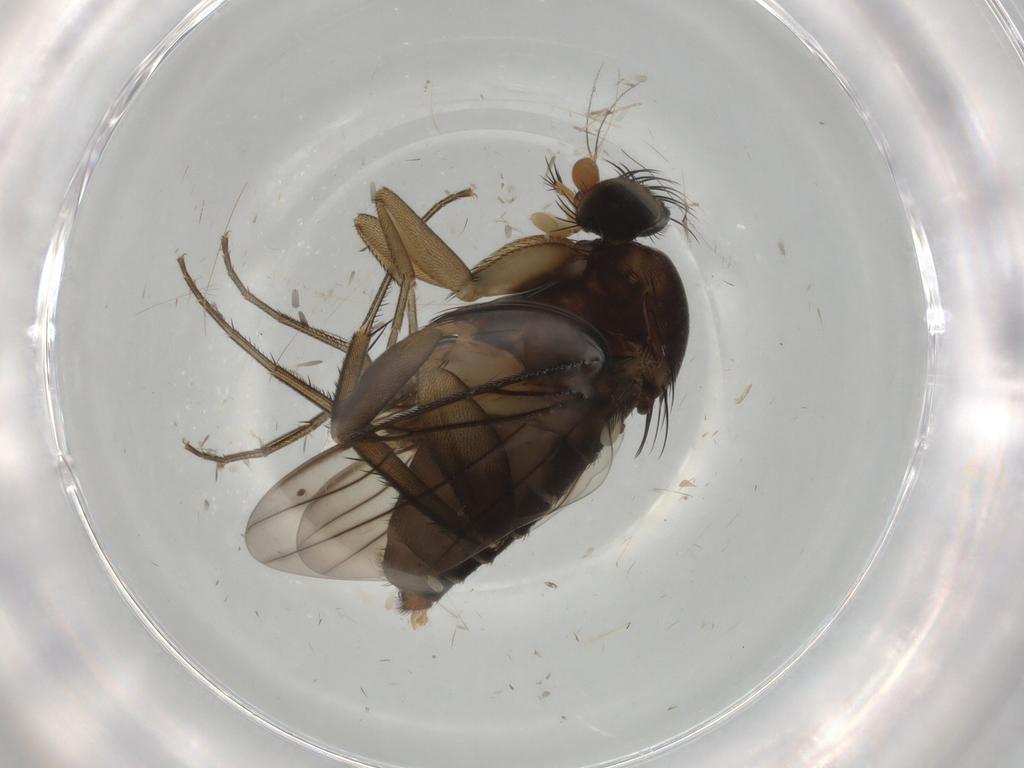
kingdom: Animalia
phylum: Arthropoda
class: Insecta
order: Diptera
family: Phoridae
